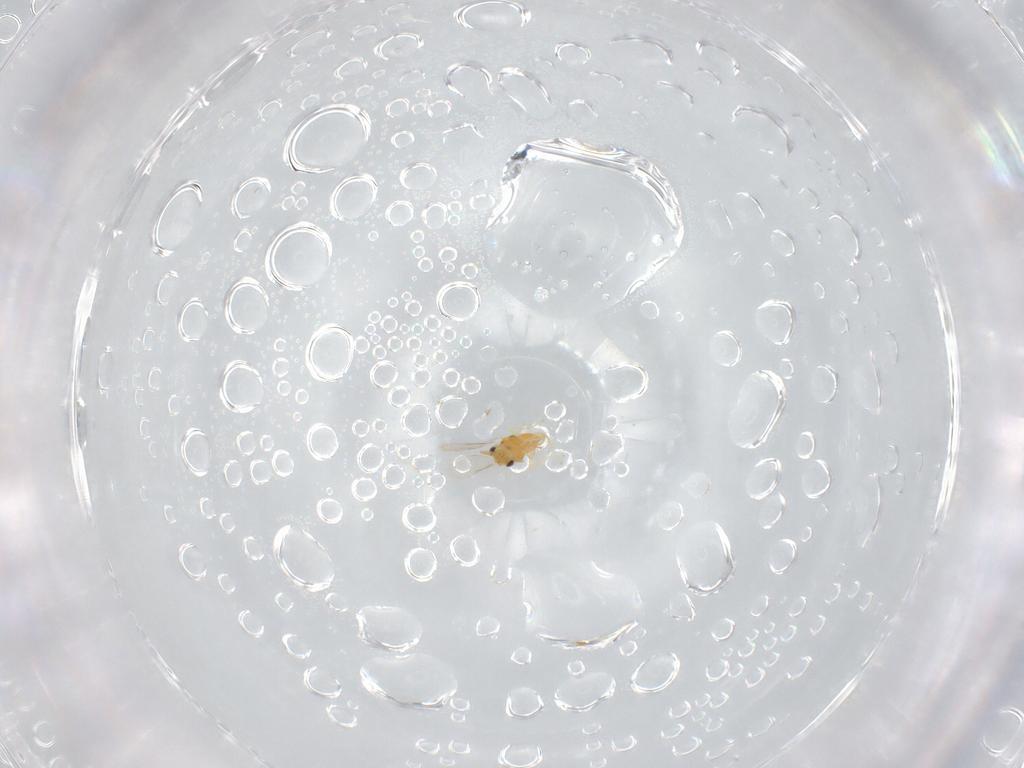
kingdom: Animalia
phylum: Arthropoda
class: Insecta
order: Hymenoptera
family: Aphelinidae
